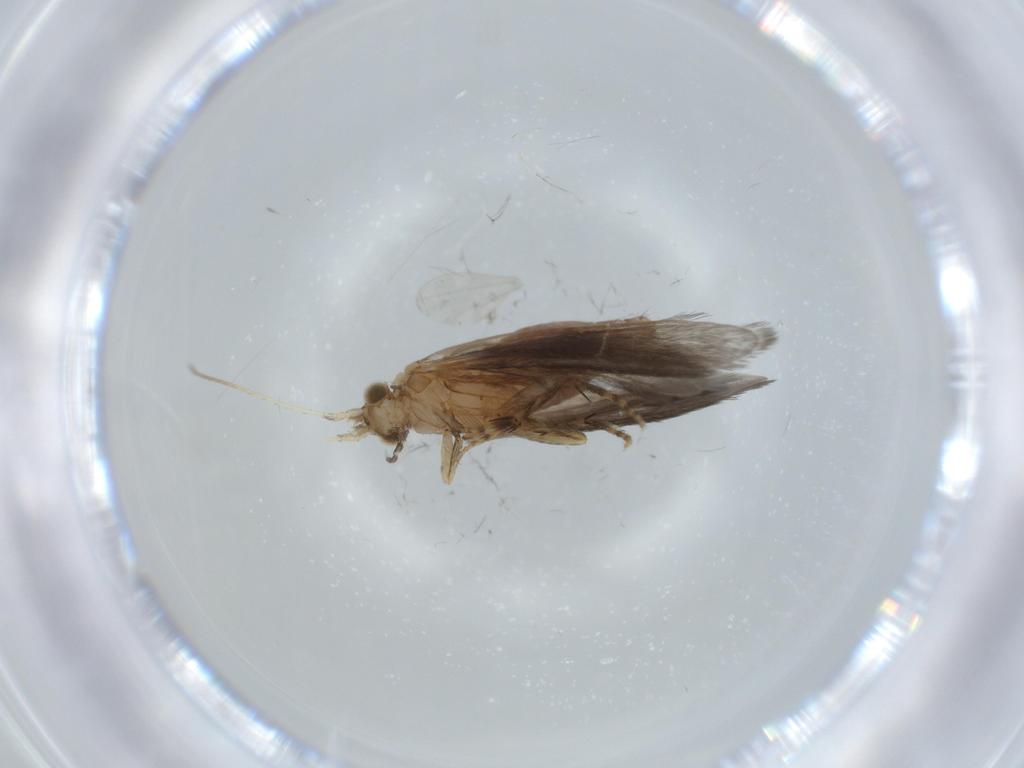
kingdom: Animalia
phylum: Arthropoda
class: Insecta
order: Trichoptera
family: Glossosomatidae
